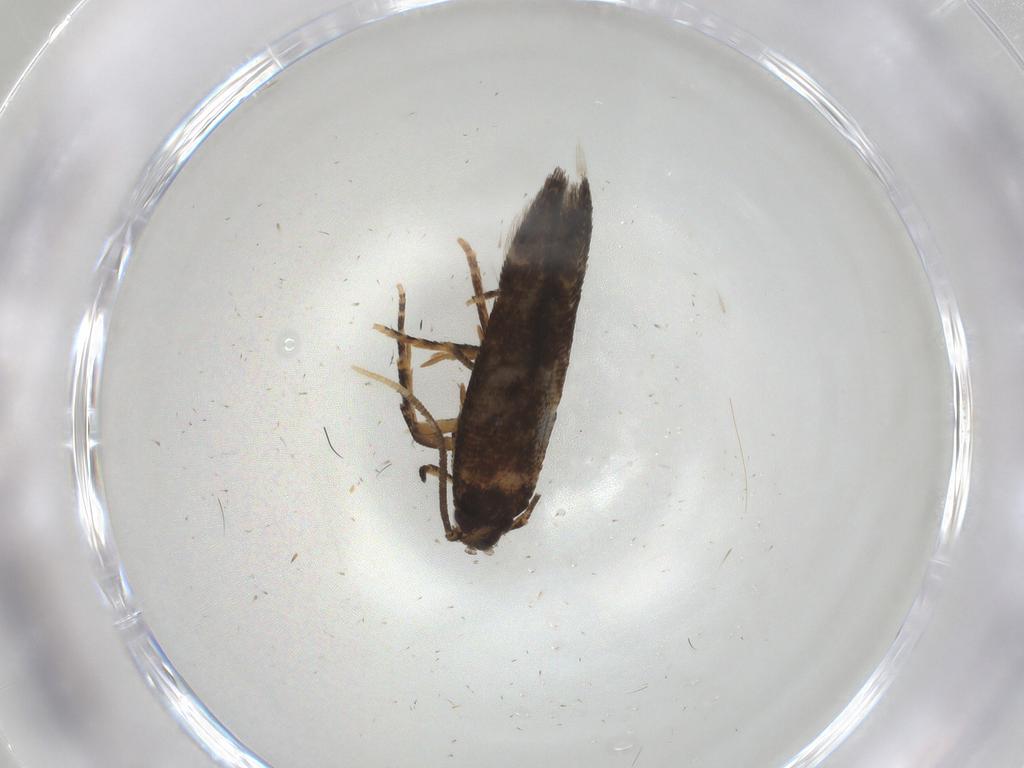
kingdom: Animalia
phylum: Arthropoda
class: Insecta
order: Lepidoptera
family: Cosmopterigidae
